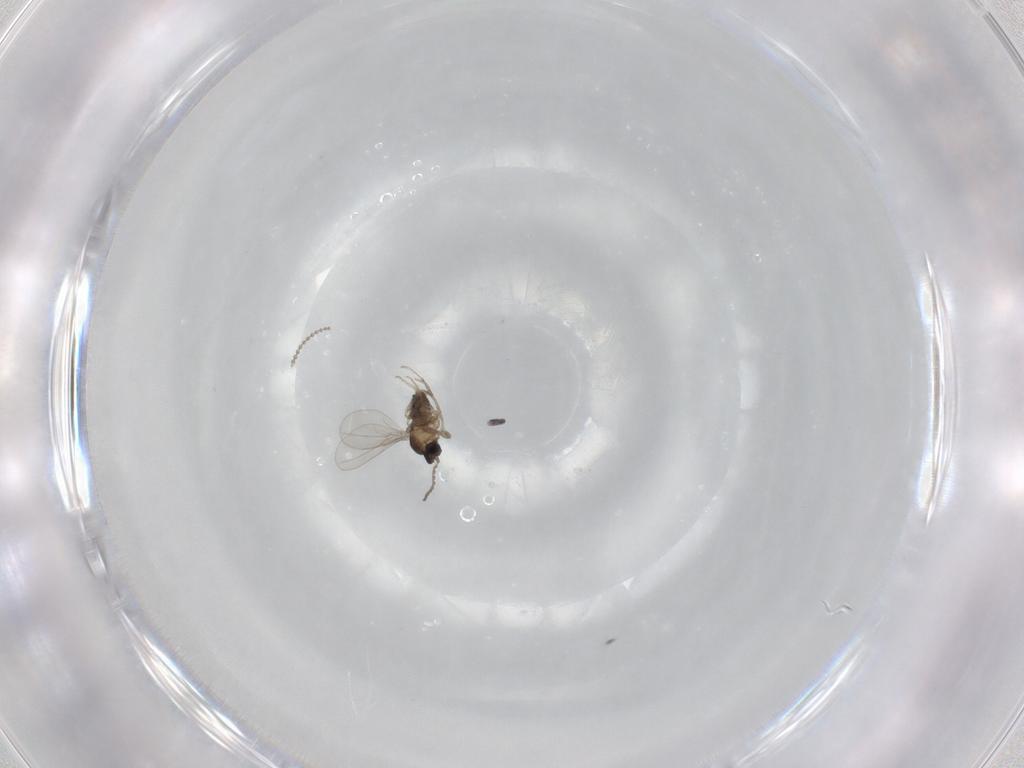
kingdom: Animalia
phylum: Arthropoda
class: Insecta
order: Diptera
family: Cecidomyiidae
